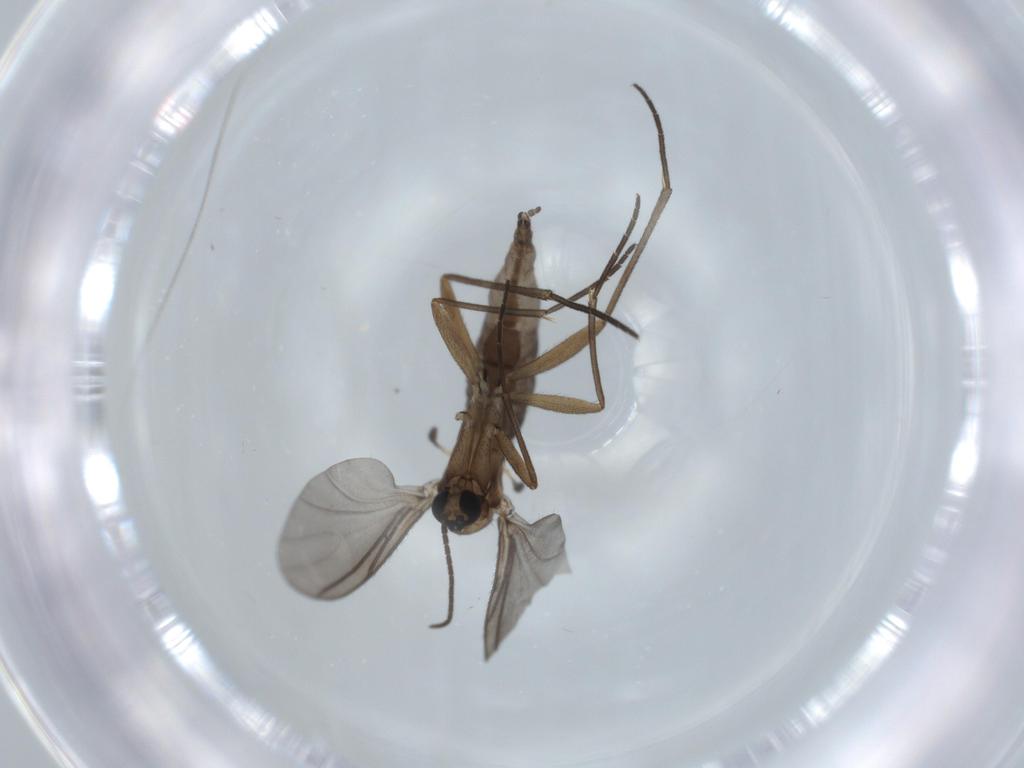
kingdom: Animalia
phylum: Arthropoda
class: Insecta
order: Diptera
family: Sciaridae
